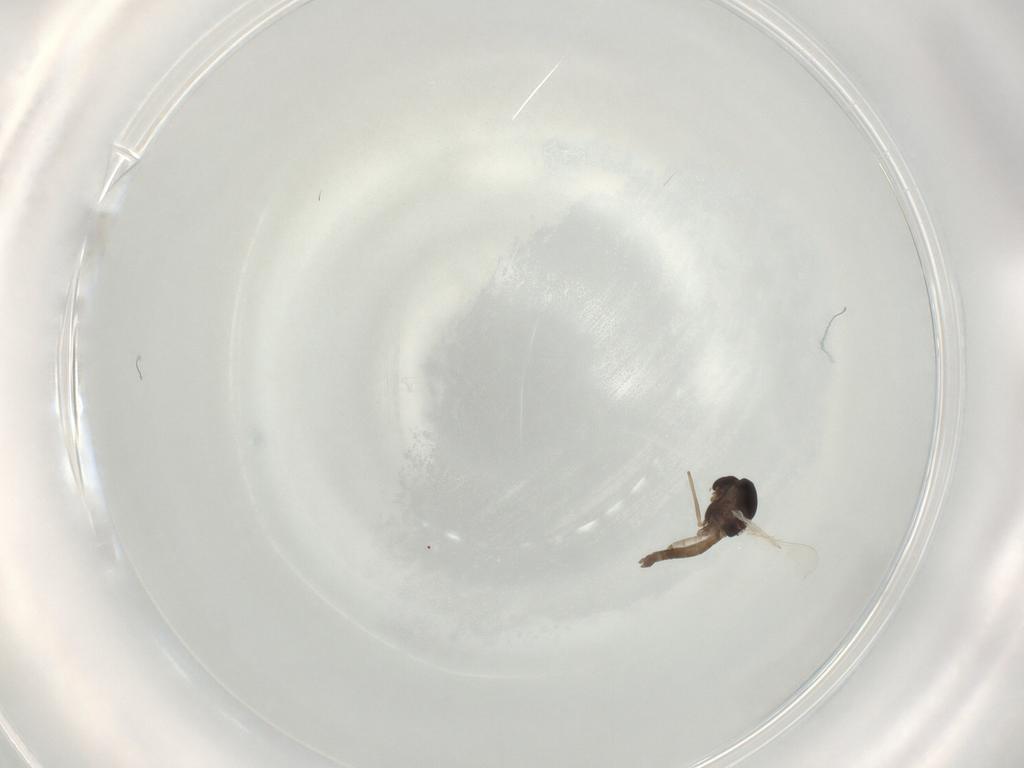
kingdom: Animalia
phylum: Arthropoda
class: Insecta
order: Diptera
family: Chironomidae
